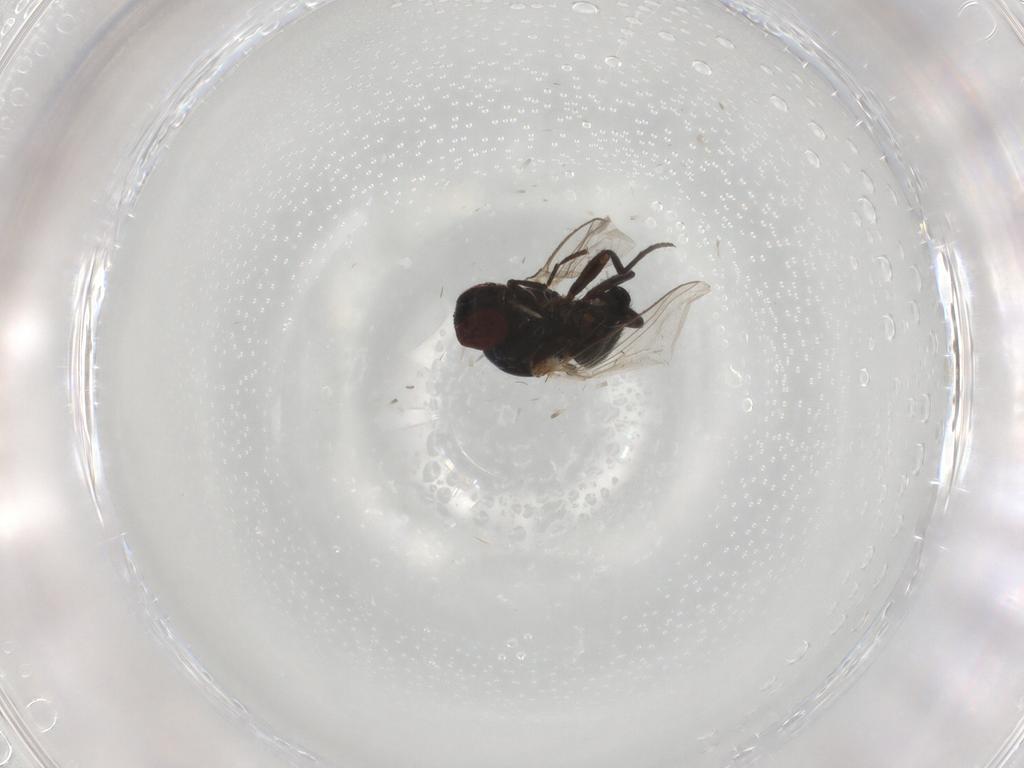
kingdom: Animalia
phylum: Arthropoda
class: Insecta
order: Diptera
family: Agromyzidae
